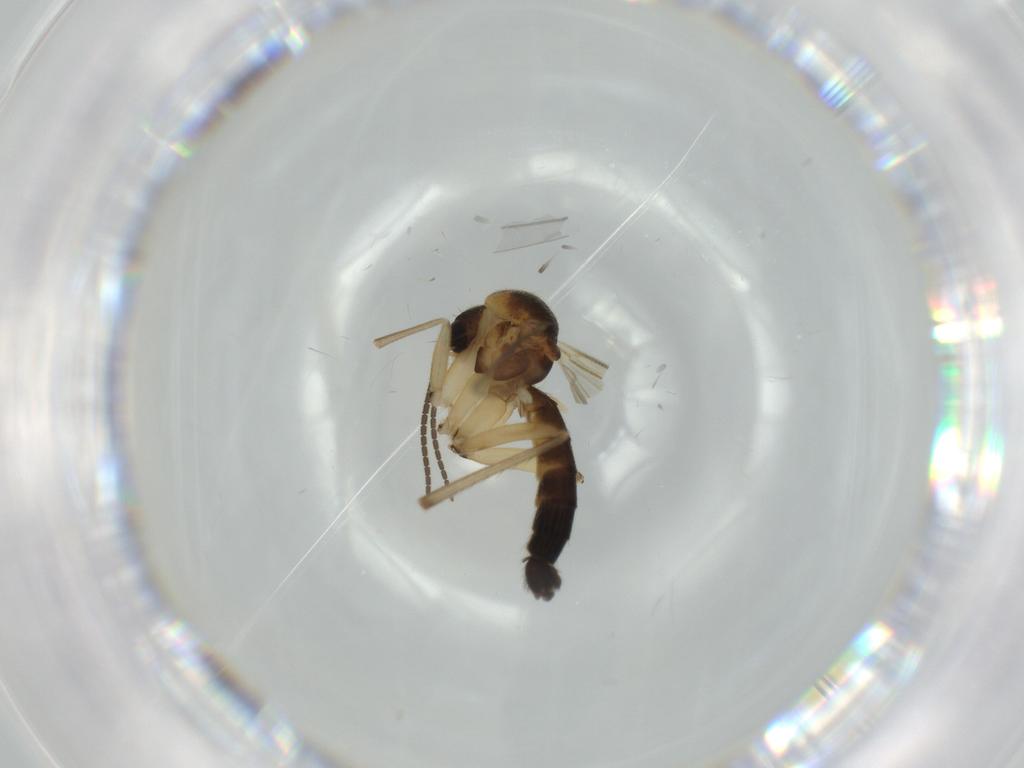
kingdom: Animalia
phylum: Arthropoda
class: Insecta
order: Diptera
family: Mycetophilidae
